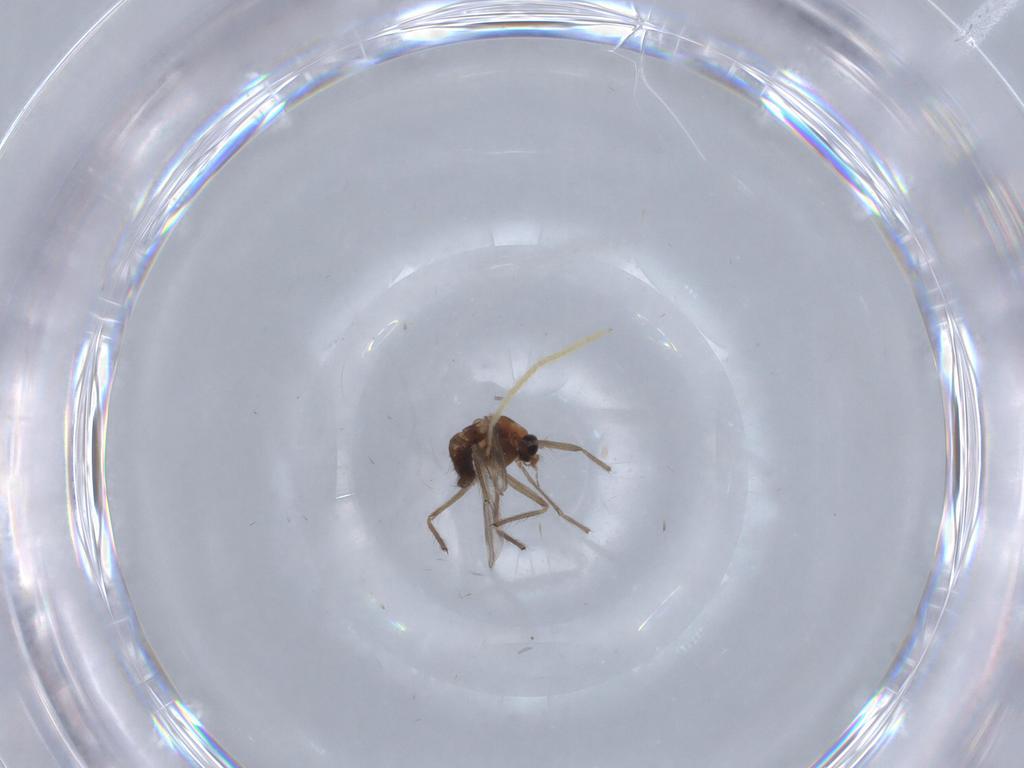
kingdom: Animalia
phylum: Arthropoda
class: Insecta
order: Diptera
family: Chironomidae
